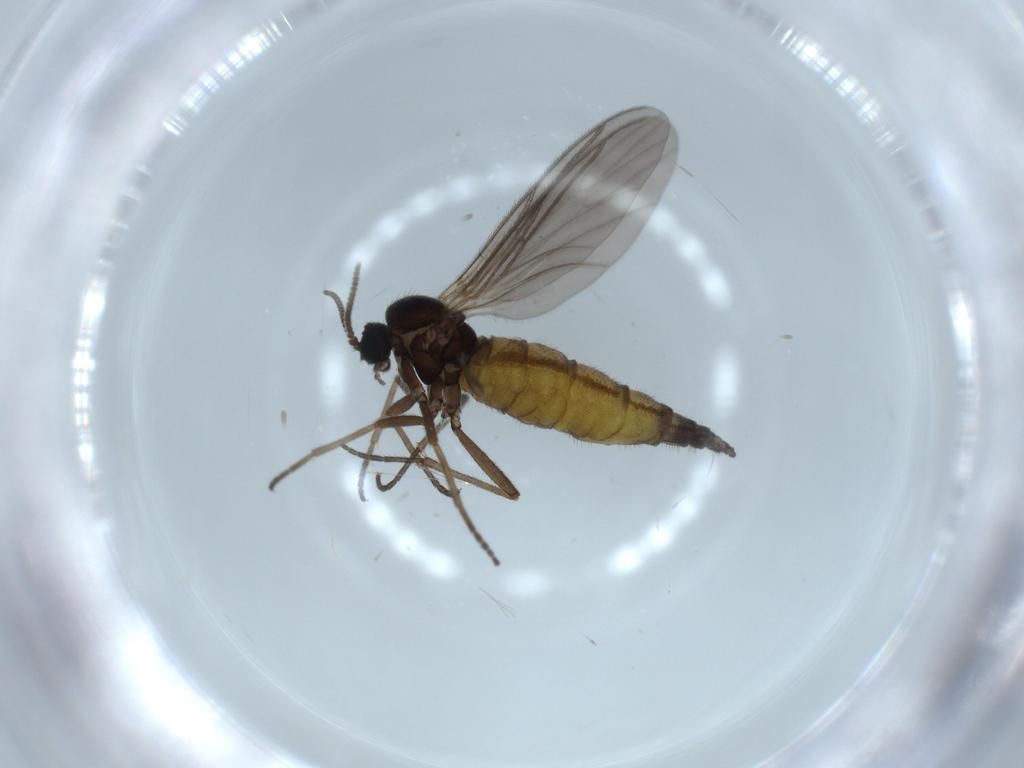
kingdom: Animalia
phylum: Arthropoda
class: Insecta
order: Diptera
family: Sciaridae
